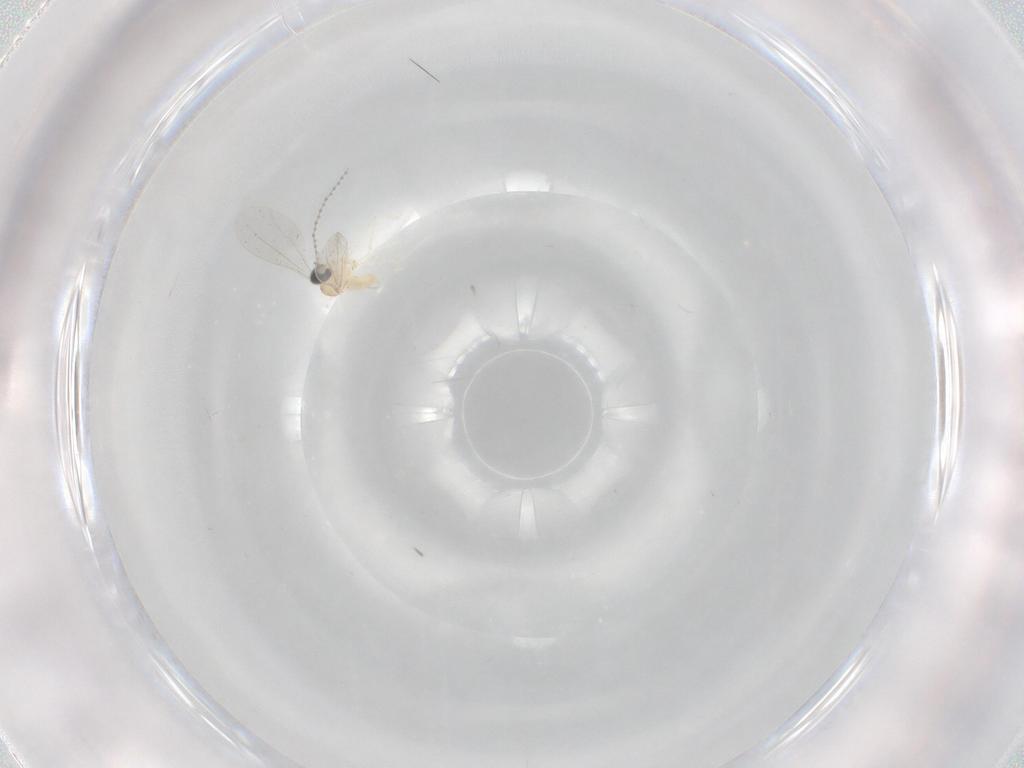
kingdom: Animalia
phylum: Arthropoda
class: Insecta
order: Diptera
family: Cecidomyiidae
